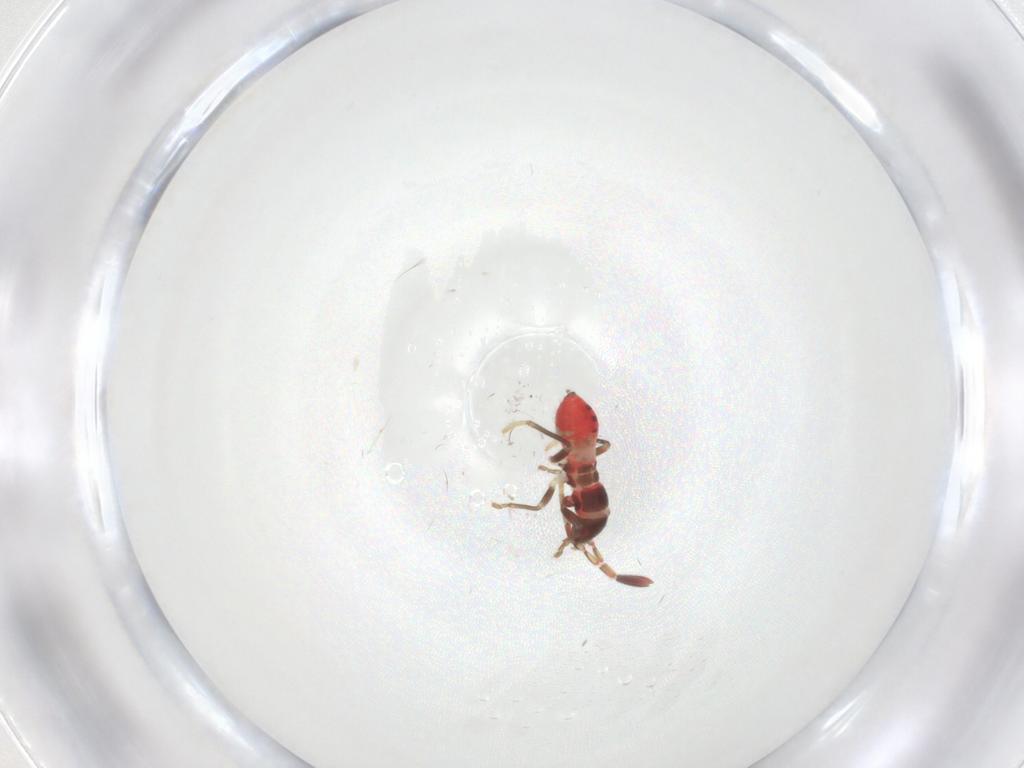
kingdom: Animalia
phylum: Arthropoda
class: Insecta
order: Hemiptera
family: Rhyparochromidae
